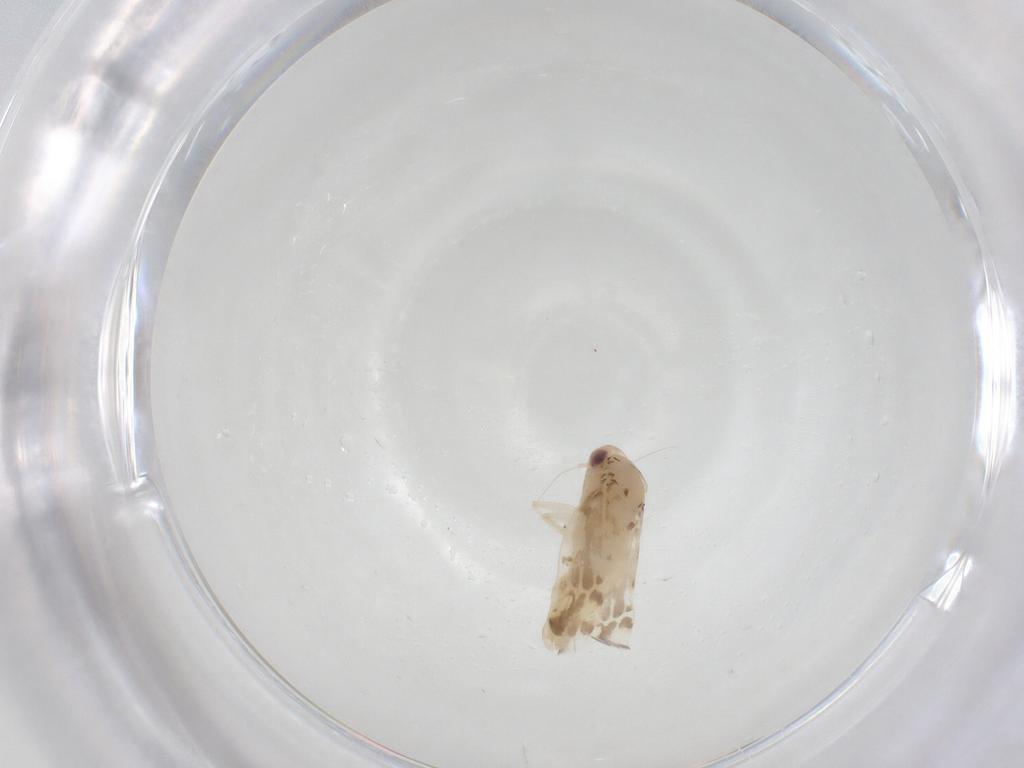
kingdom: Animalia
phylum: Arthropoda
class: Insecta
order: Hemiptera
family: Cicadellidae
